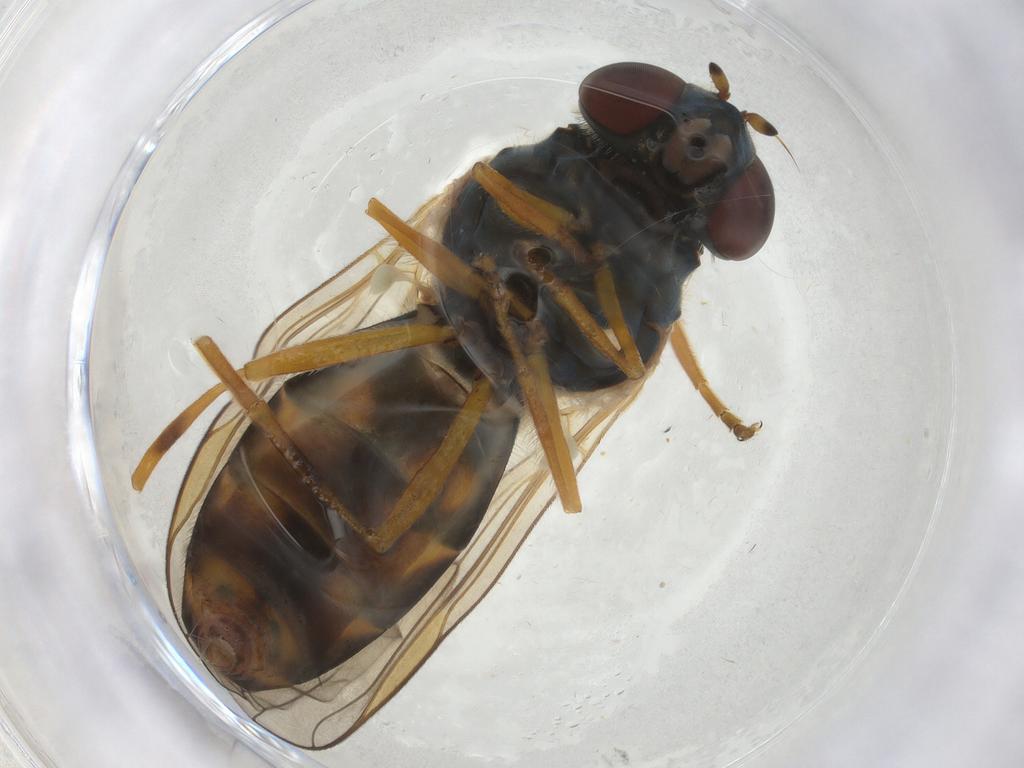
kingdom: Animalia
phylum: Arthropoda
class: Insecta
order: Diptera
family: Syrphidae
